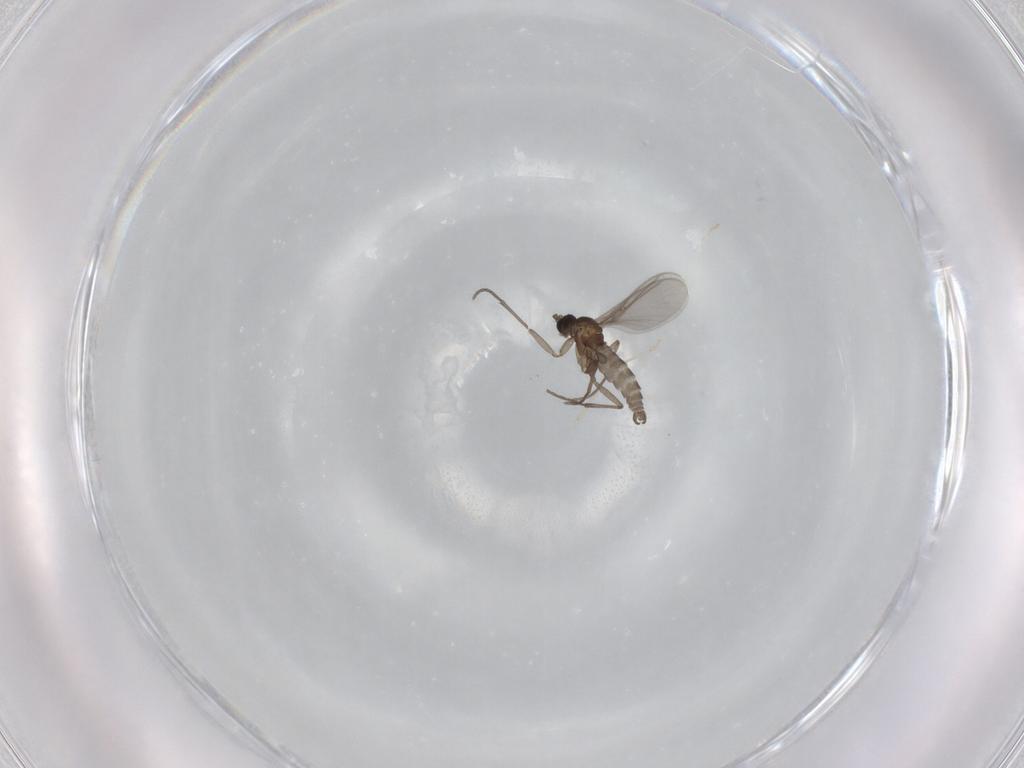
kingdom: Animalia
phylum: Arthropoda
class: Insecta
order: Diptera
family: Sciaridae
